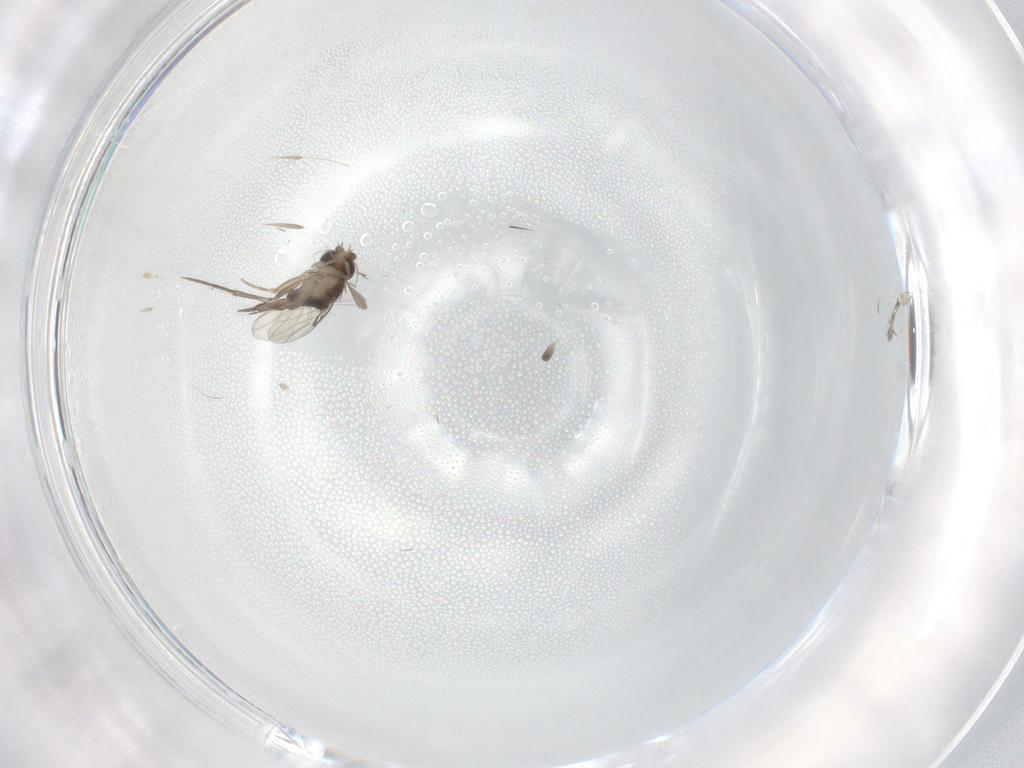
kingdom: Animalia
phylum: Arthropoda
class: Insecta
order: Diptera
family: Phoridae
